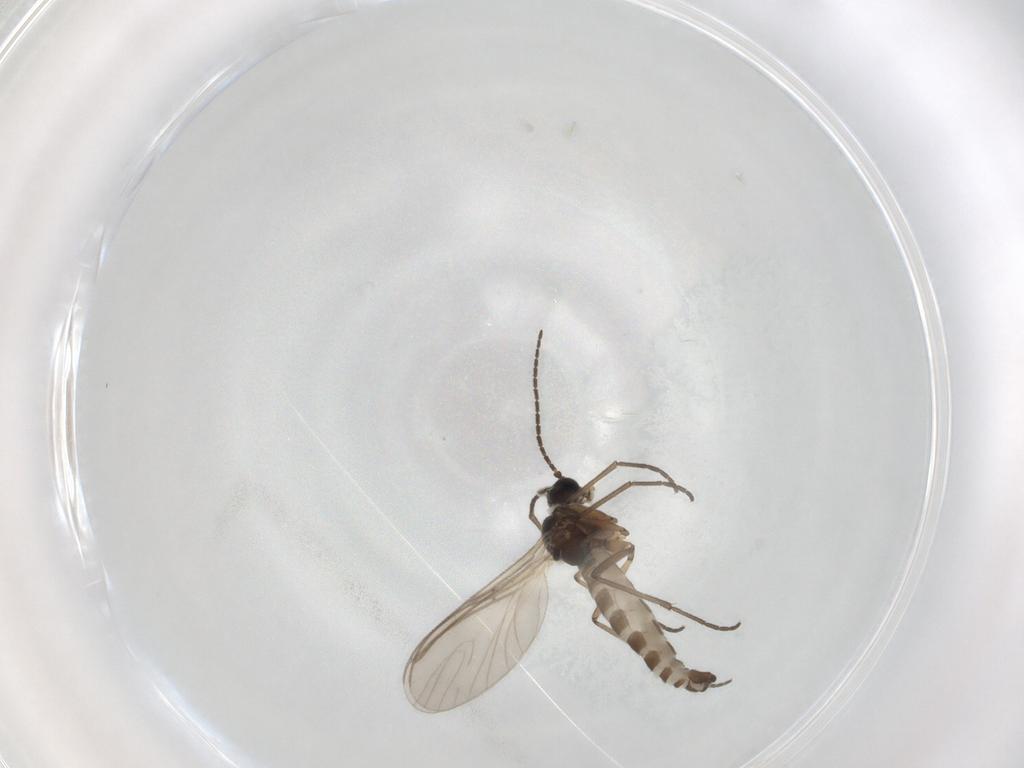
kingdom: Animalia
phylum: Arthropoda
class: Insecta
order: Diptera
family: Sciaridae
